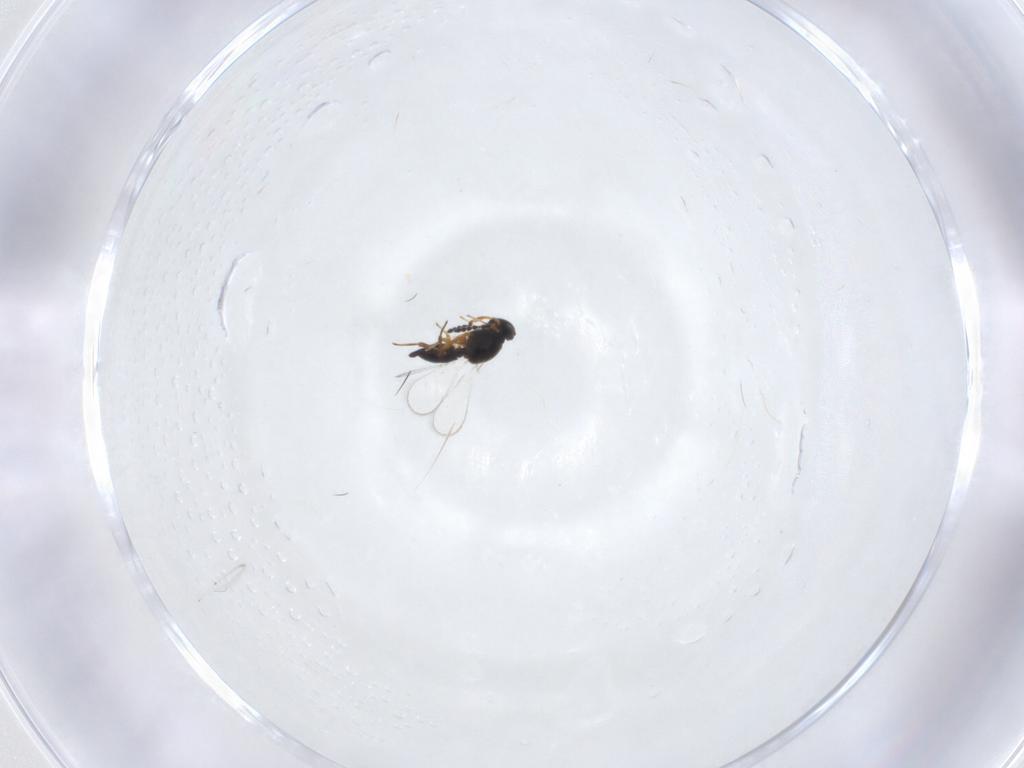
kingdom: Animalia
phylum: Arthropoda
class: Insecta
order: Hymenoptera
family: Platygastridae
